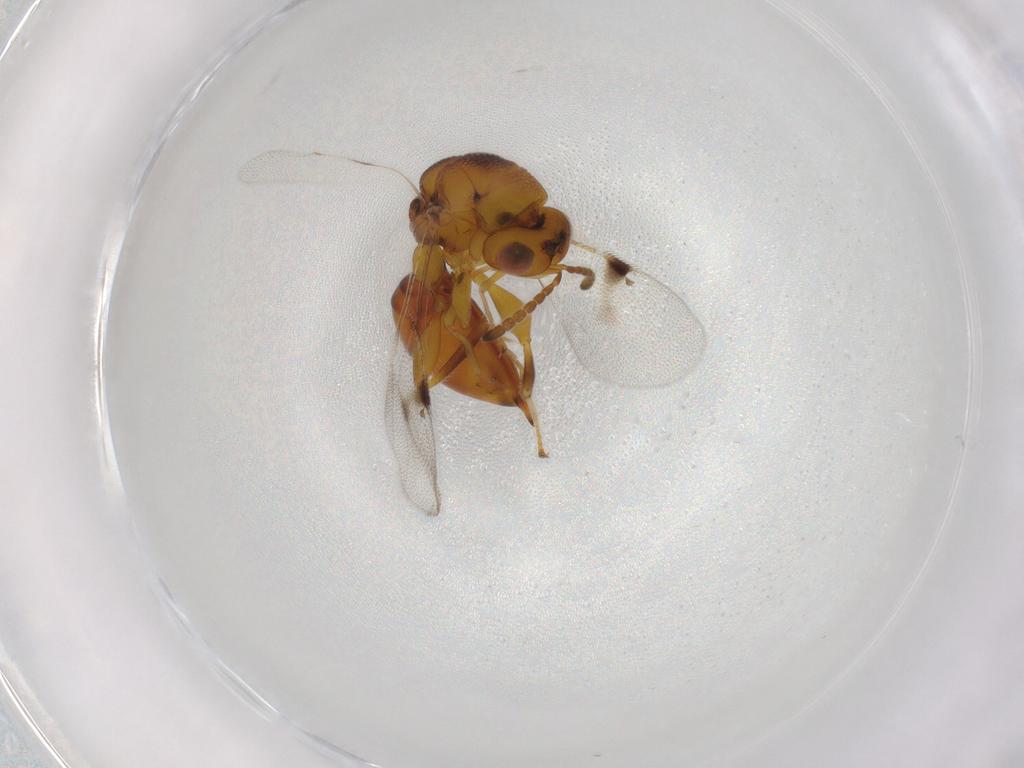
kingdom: Animalia
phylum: Arthropoda
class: Insecta
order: Hymenoptera
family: Eurytomidae
